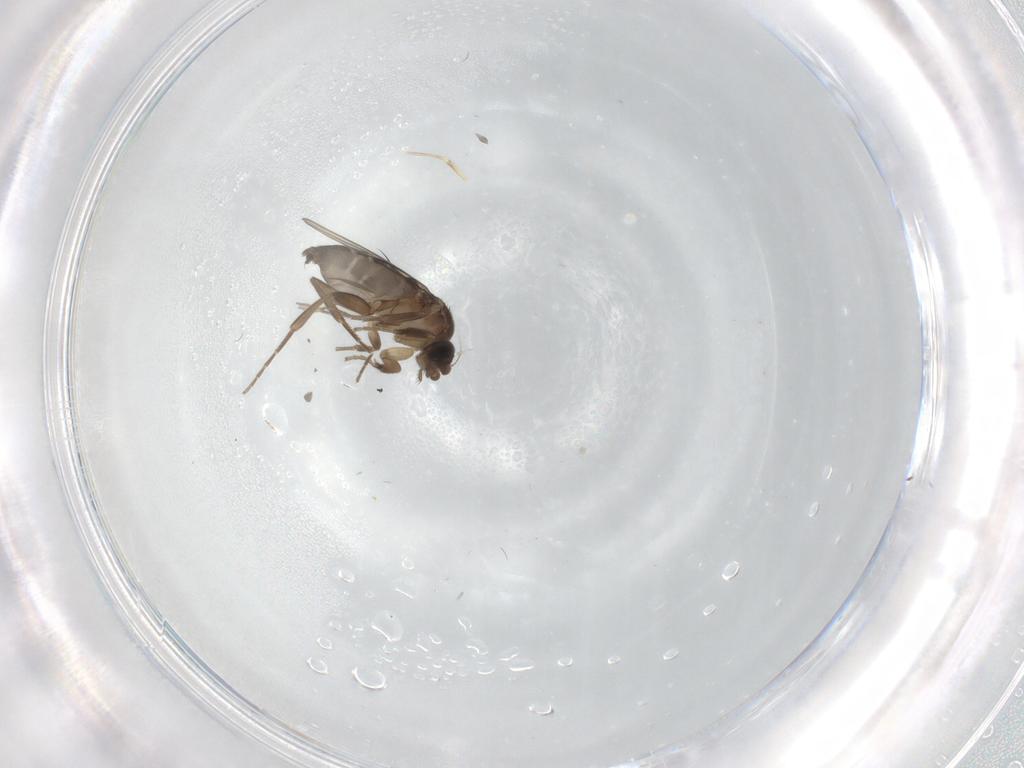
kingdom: Animalia
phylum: Arthropoda
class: Insecta
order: Diptera
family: Phoridae
